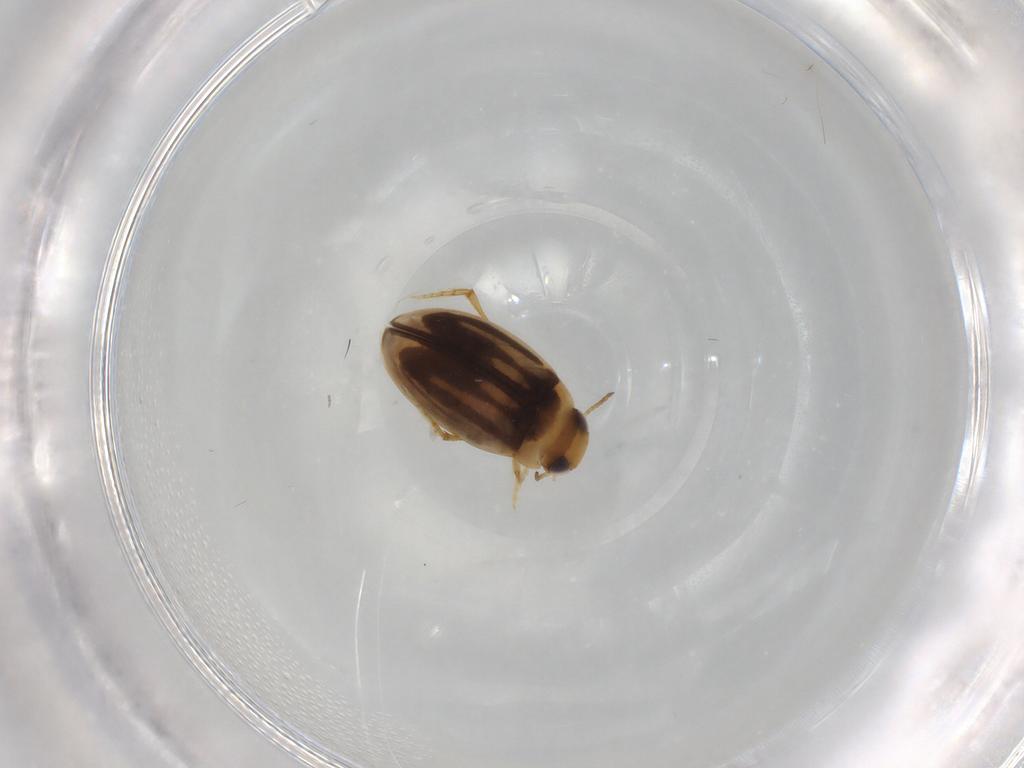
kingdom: Animalia
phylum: Arthropoda
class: Insecta
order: Coleoptera
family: Dytiscidae
